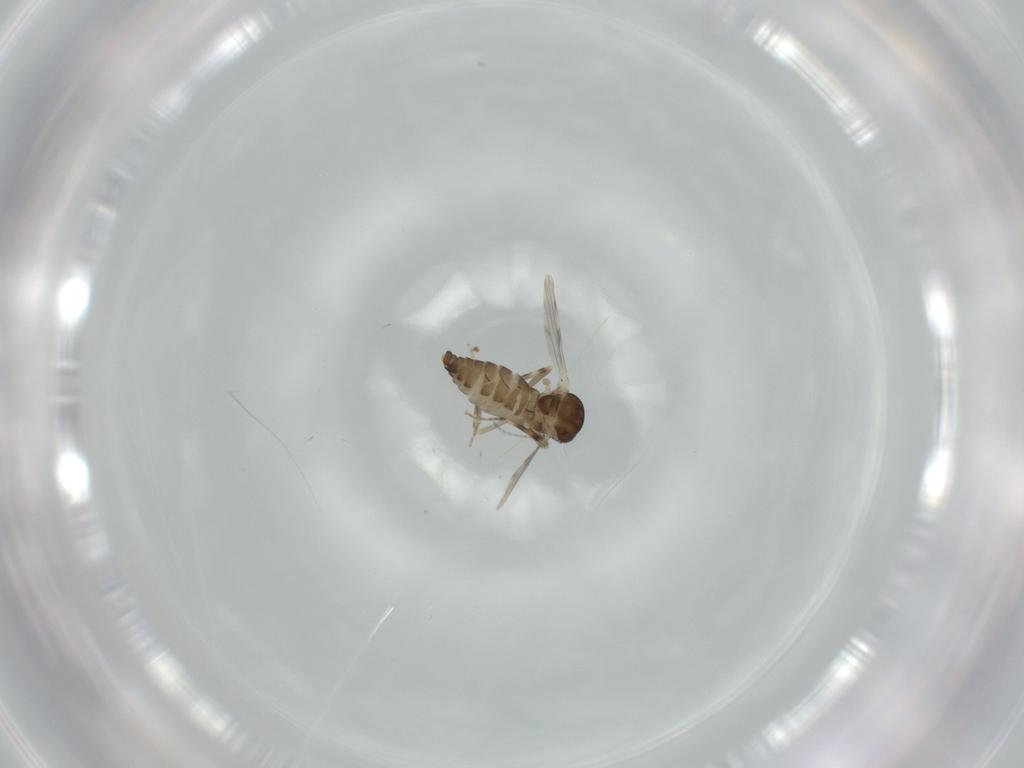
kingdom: Animalia
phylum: Arthropoda
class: Insecta
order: Diptera
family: Ceratopogonidae
